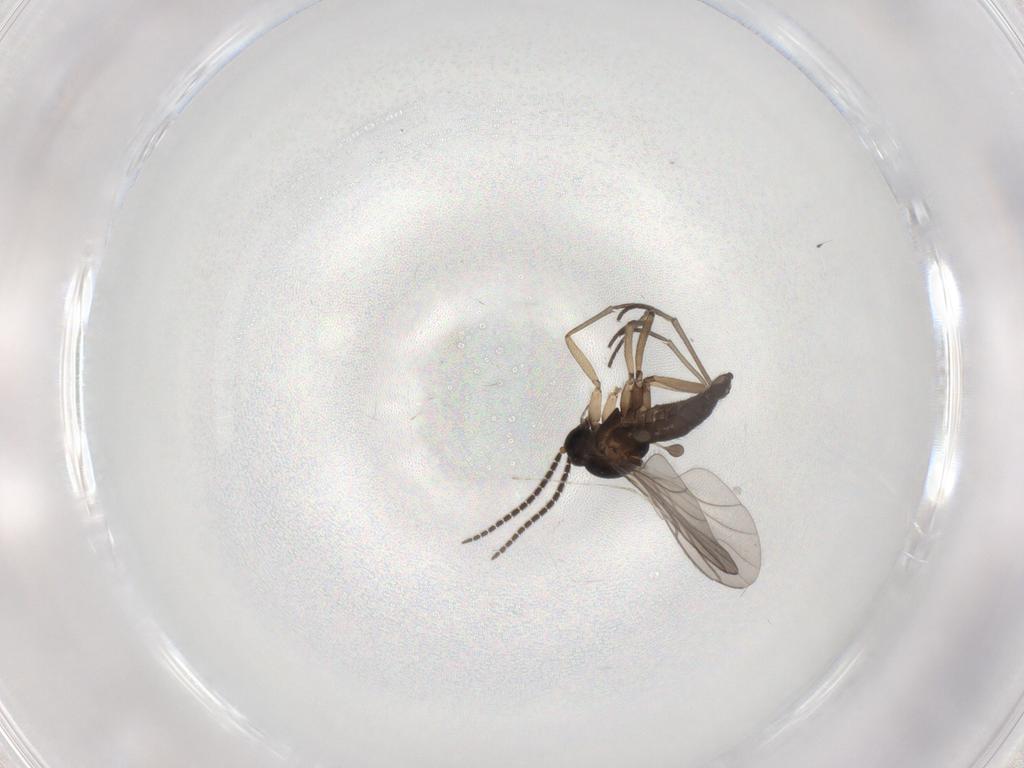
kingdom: Animalia
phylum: Arthropoda
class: Insecta
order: Diptera
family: Sciaridae
